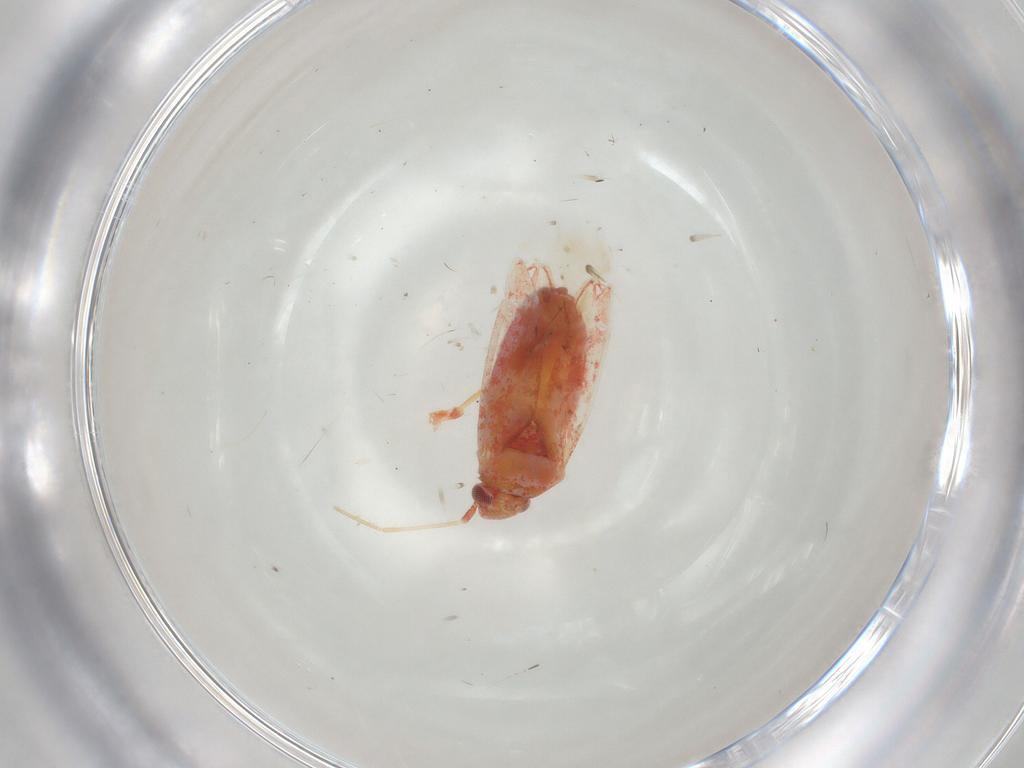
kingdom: Animalia
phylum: Arthropoda
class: Insecta
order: Hemiptera
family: Miridae
